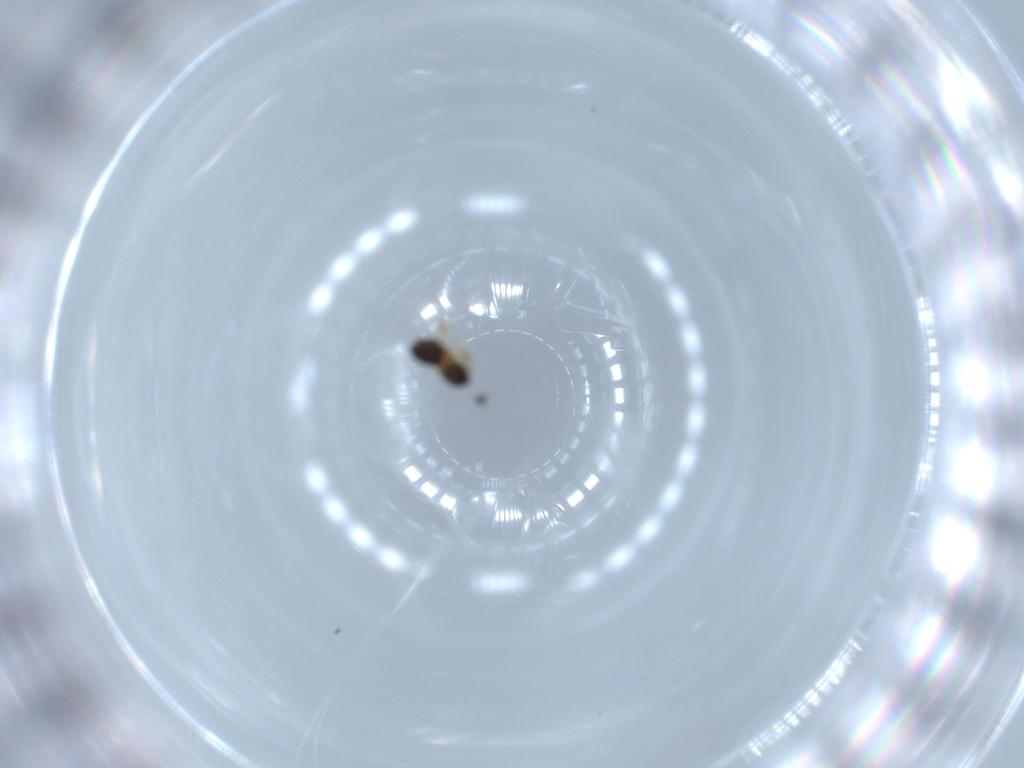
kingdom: Animalia
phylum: Arthropoda
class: Insecta
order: Hymenoptera
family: Scelionidae
